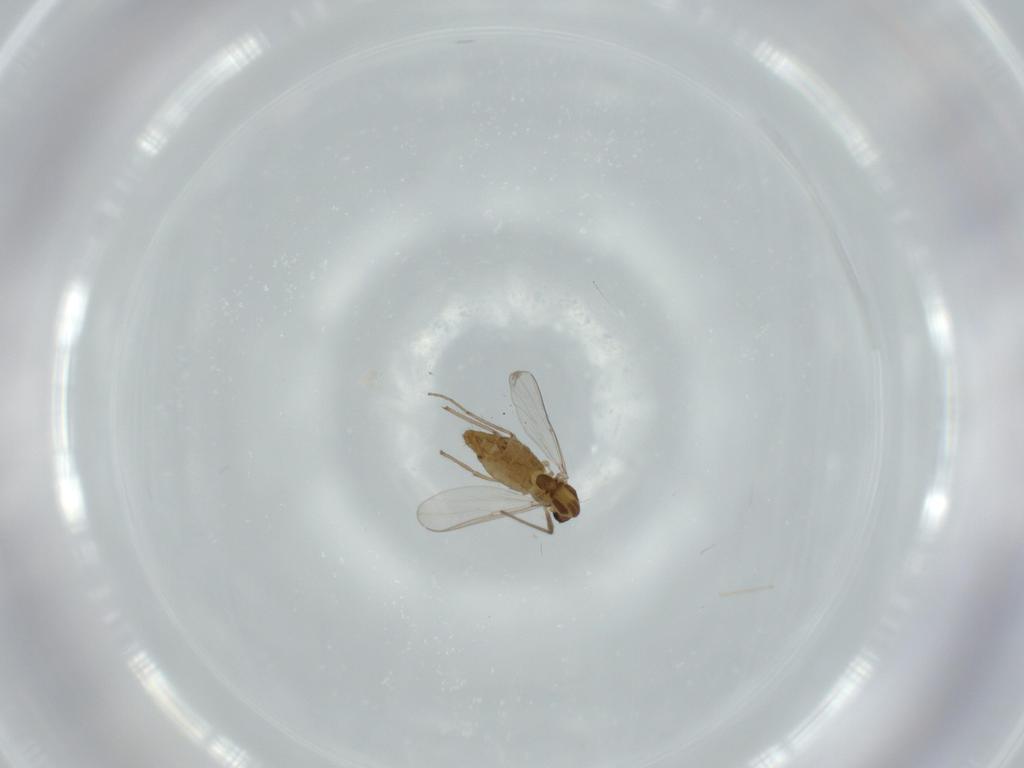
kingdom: Animalia
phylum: Arthropoda
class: Insecta
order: Diptera
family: Chironomidae
